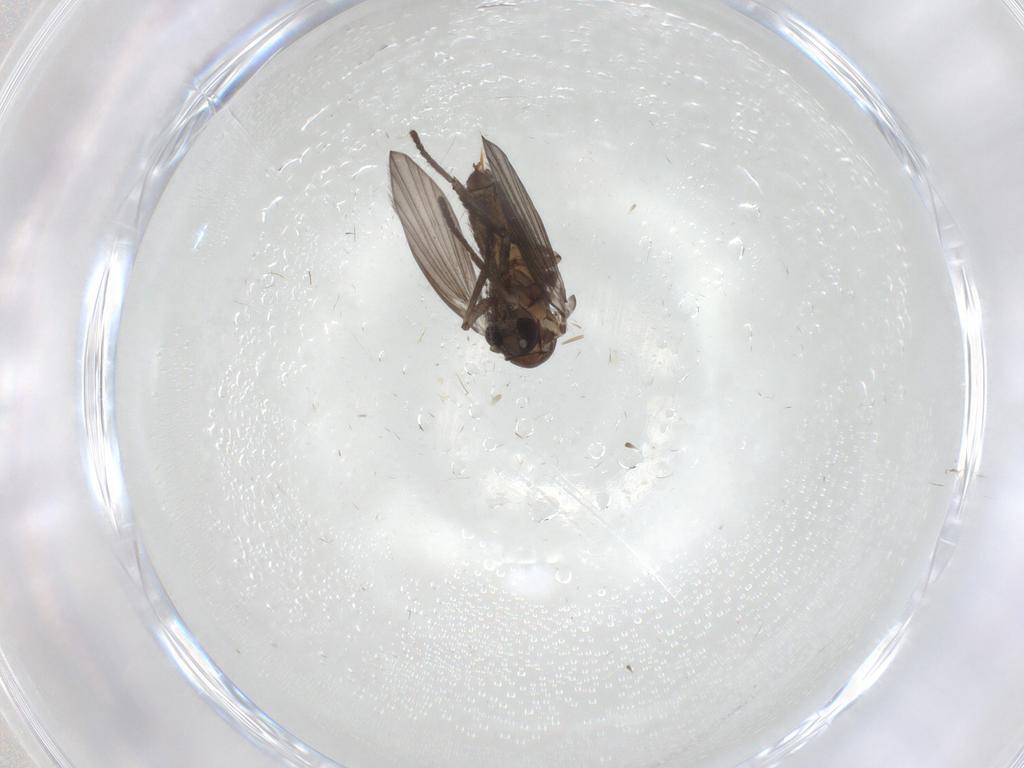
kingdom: Animalia
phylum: Arthropoda
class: Insecta
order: Diptera
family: Psychodidae
